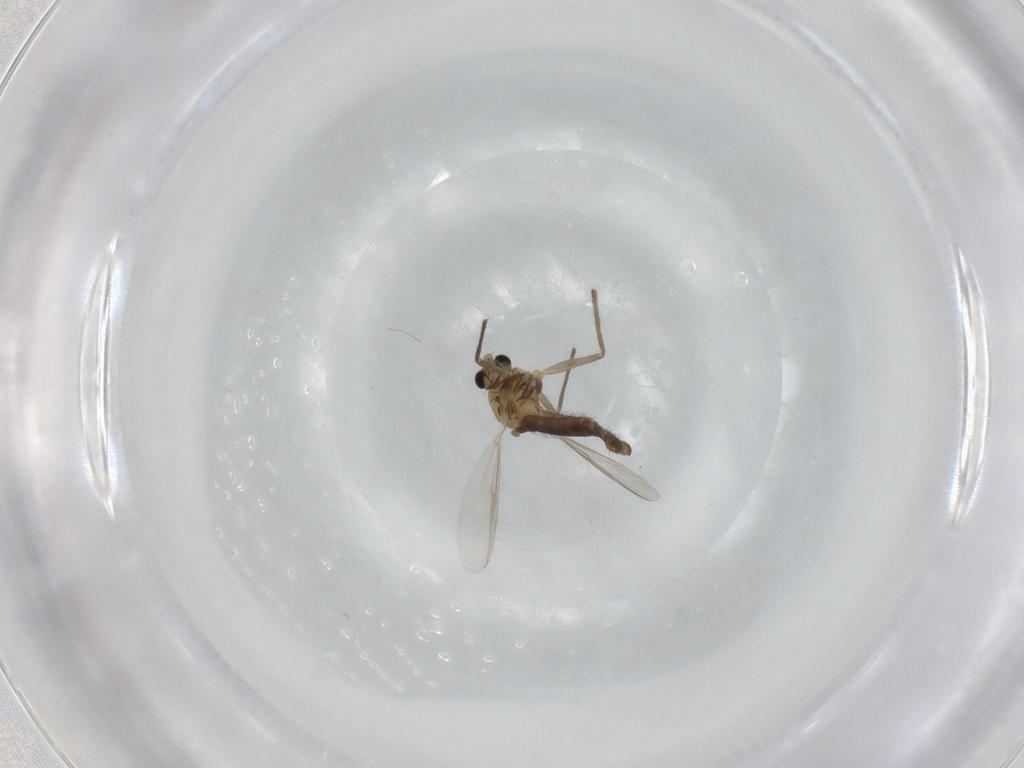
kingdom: Animalia
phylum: Arthropoda
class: Insecta
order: Diptera
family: Chironomidae
